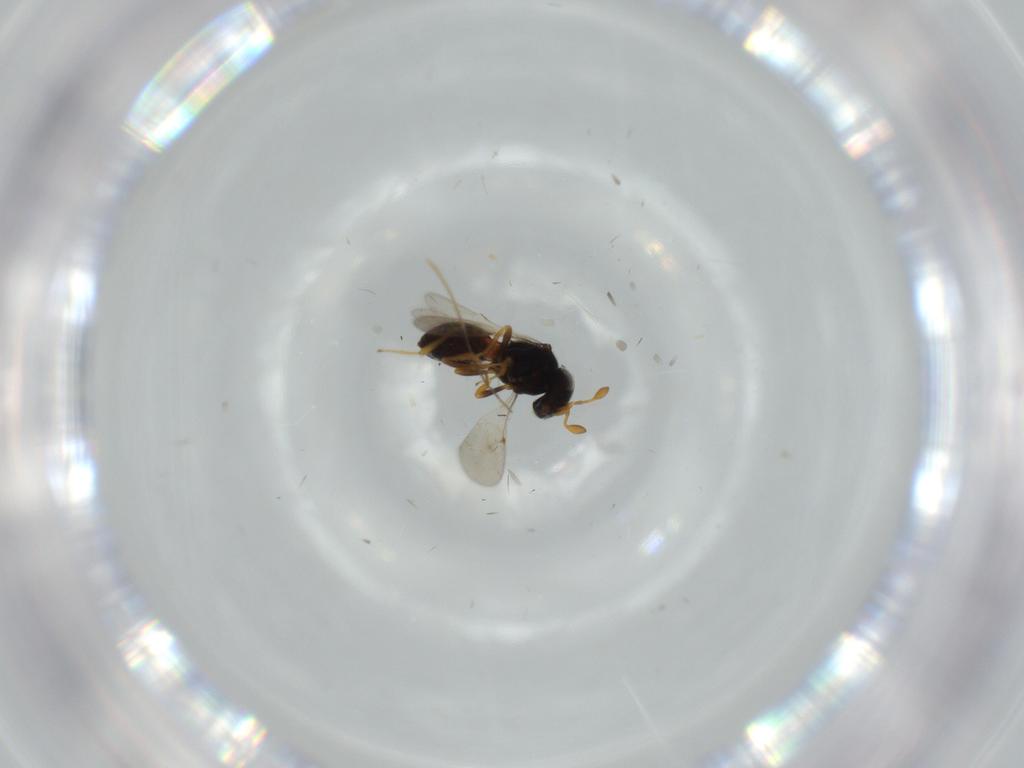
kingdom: Animalia
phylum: Arthropoda
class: Insecta
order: Hymenoptera
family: Scelionidae
